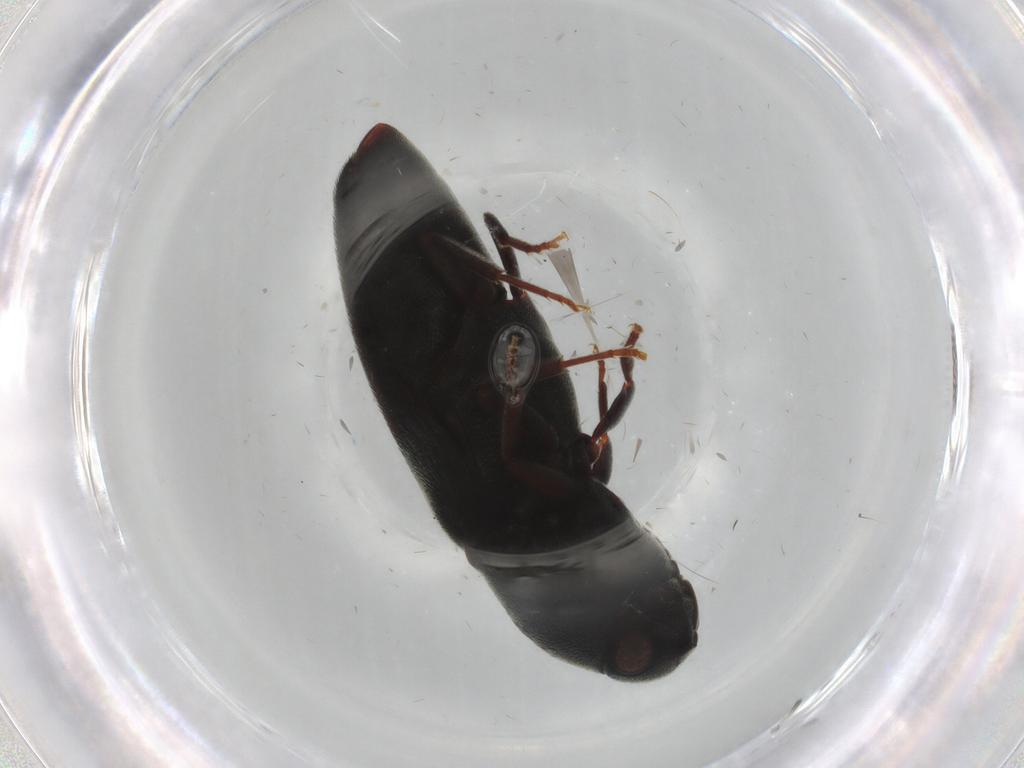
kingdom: Animalia
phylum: Arthropoda
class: Insecta
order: Coleoptera
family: Eucnemidae
